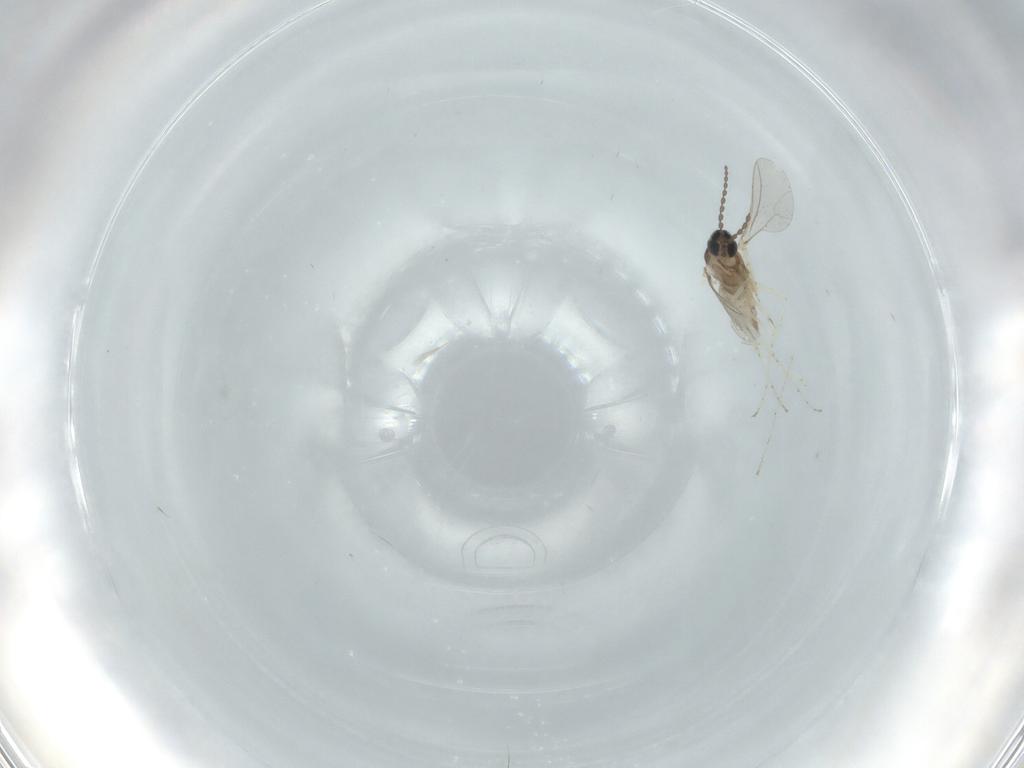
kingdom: Animalia
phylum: Arthropoda
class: Insecta
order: Diptera
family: Cecidomyiidae
